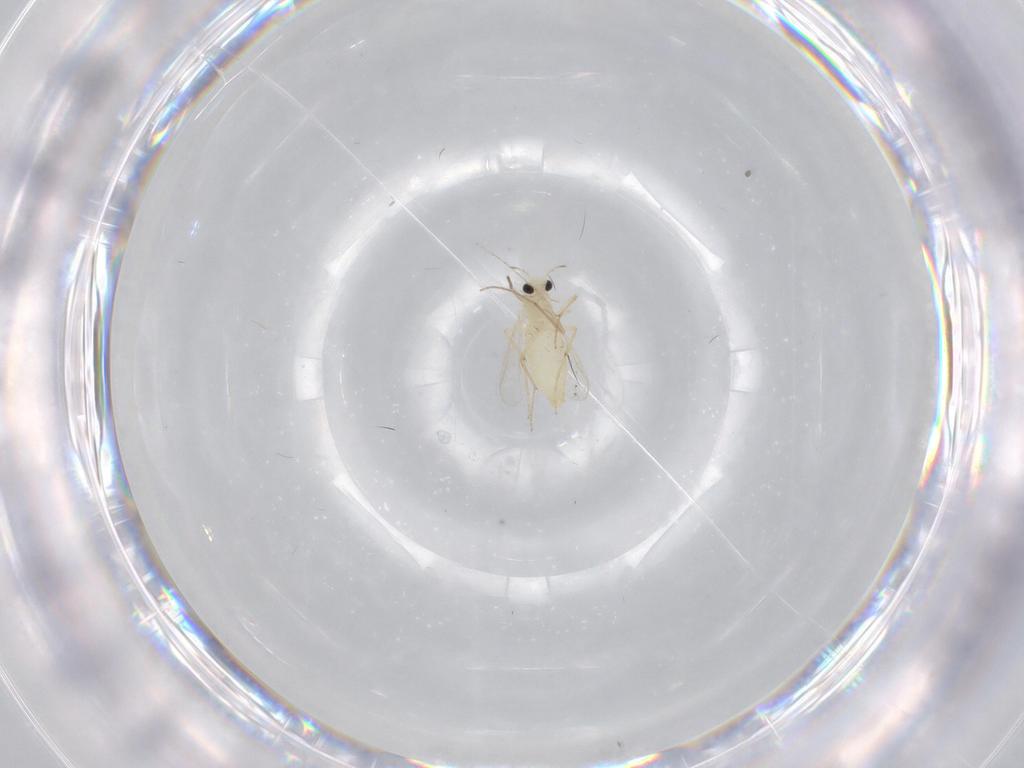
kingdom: Animalia
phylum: Arthropoda
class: Insecta
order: Diptera
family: Chironomidae
